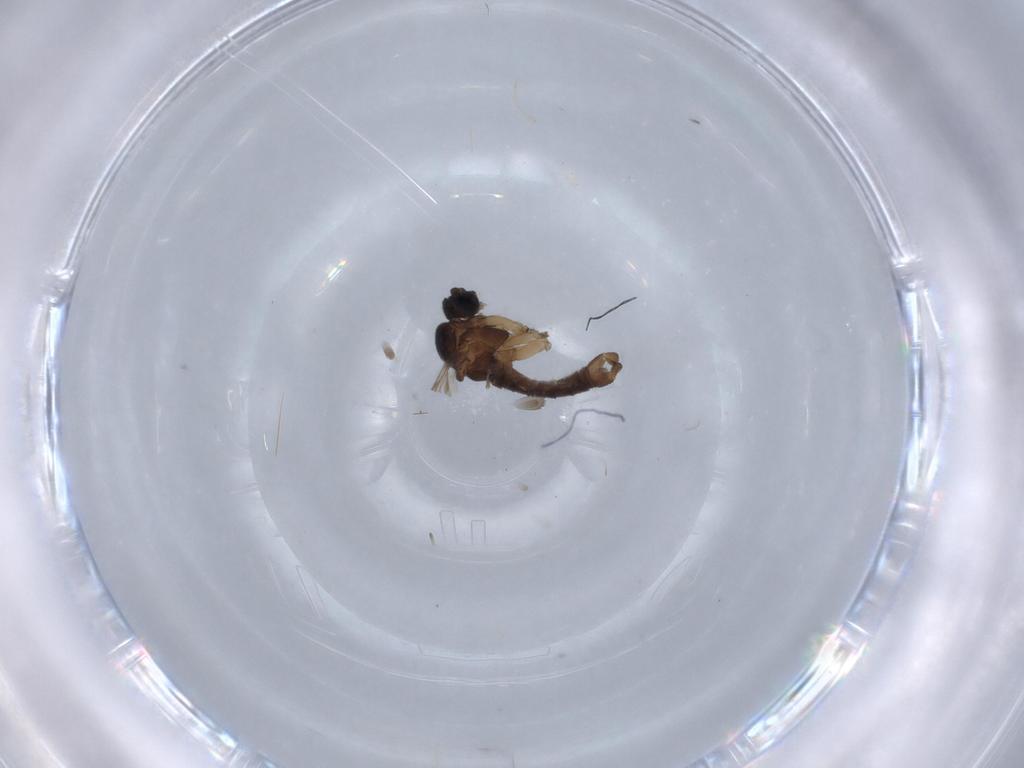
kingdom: Animalia
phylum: Arthropoda
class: Insecta
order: Diptera
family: Sciaridae
